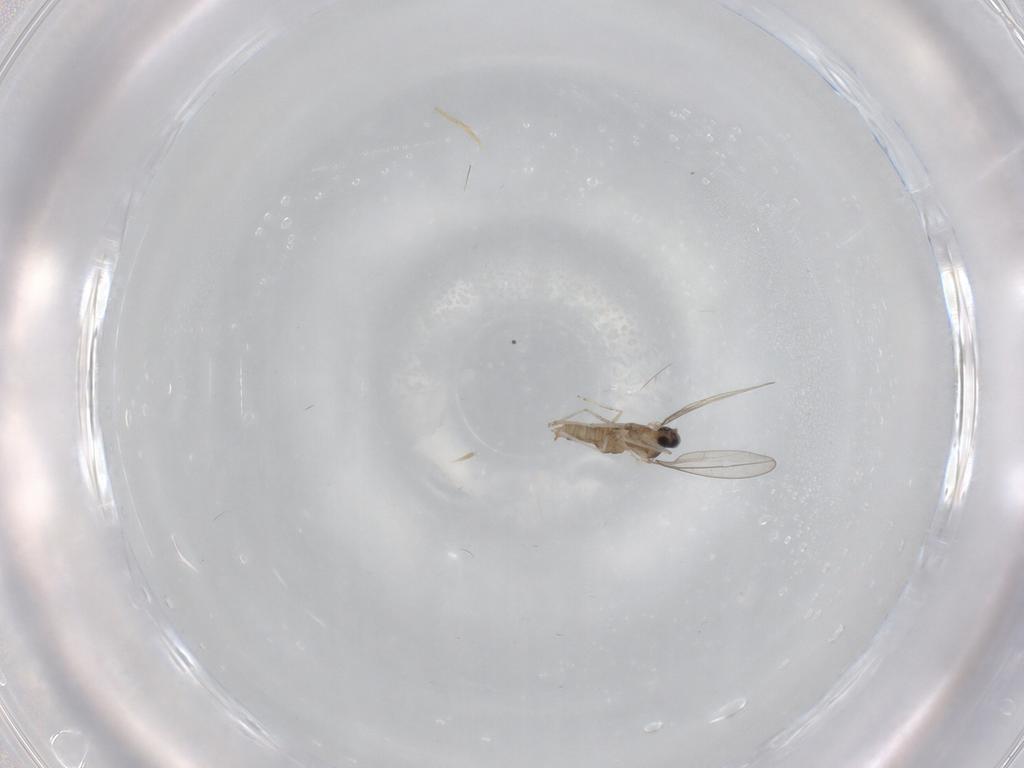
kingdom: Animalia
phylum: Arthropoda
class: Insecta
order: Diptera
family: Cecidomyiidae
